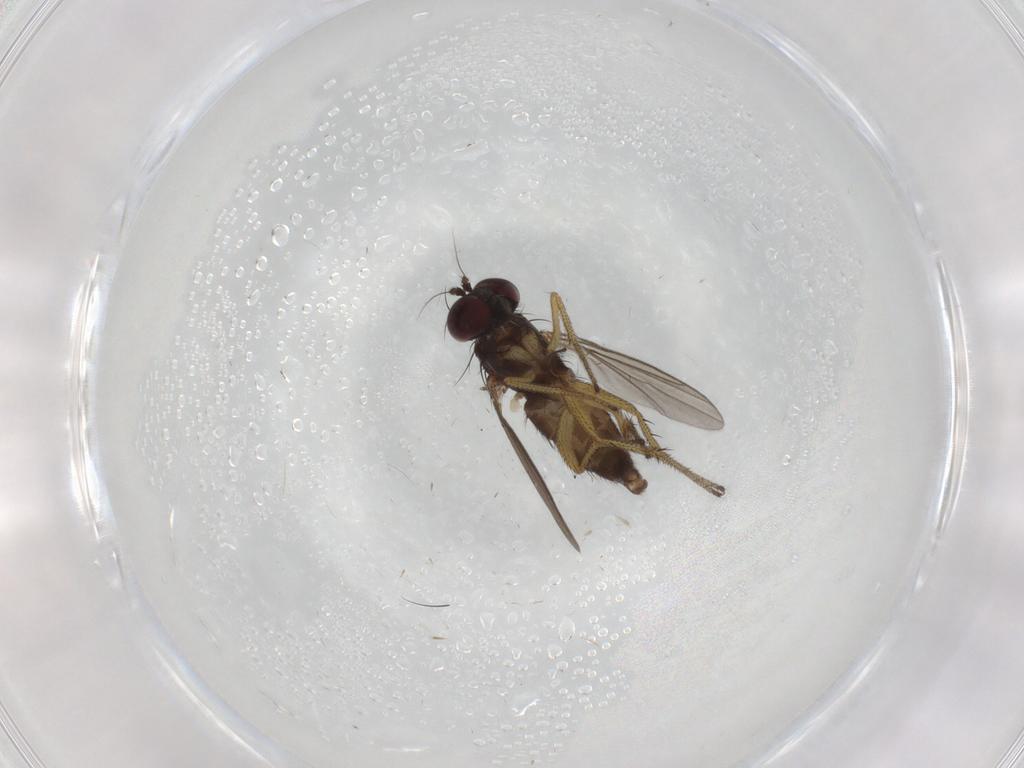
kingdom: Animalia
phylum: Arthropoda
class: Insecta
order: Diptera
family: Chironomidae
